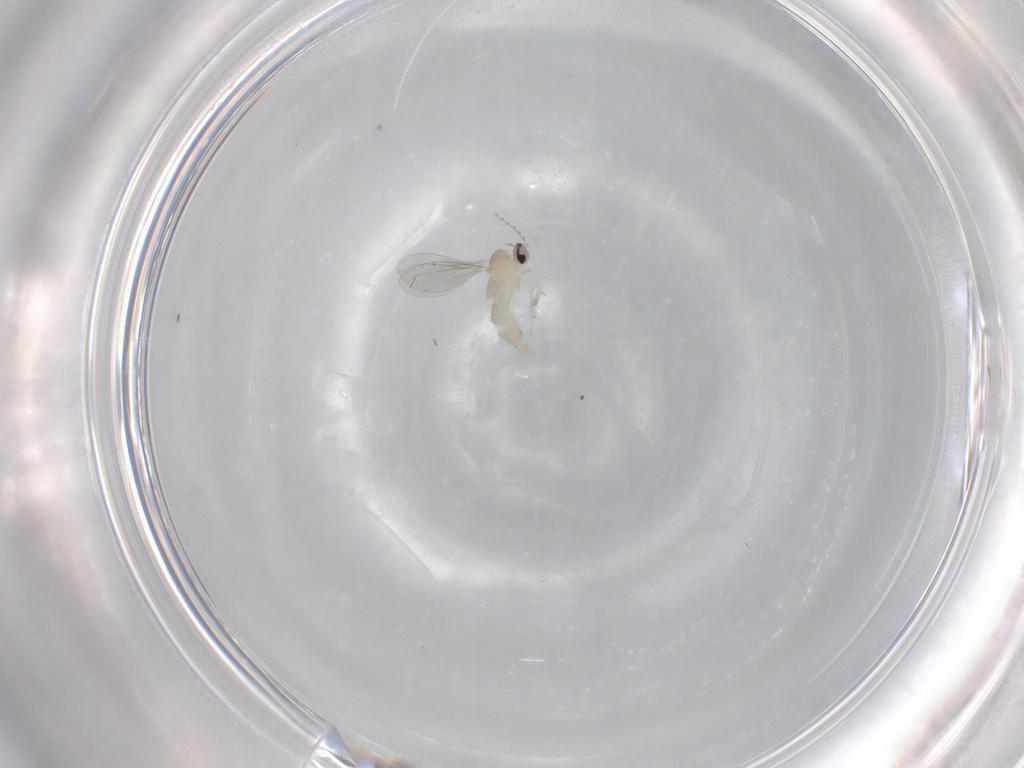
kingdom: Animalia
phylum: Arthropoda
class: Insecta
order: Diptera
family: Cecidomyiidae
